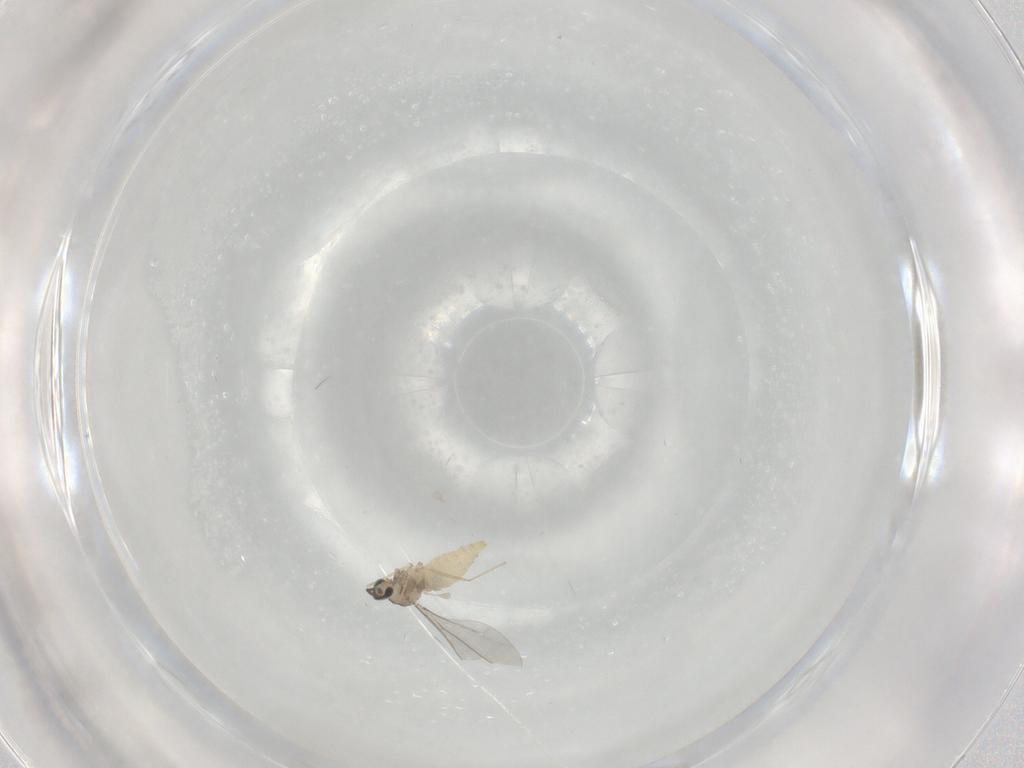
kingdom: Animalia
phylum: Arthropoda
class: Insecta
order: Diptera
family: Cecidomyiidae
